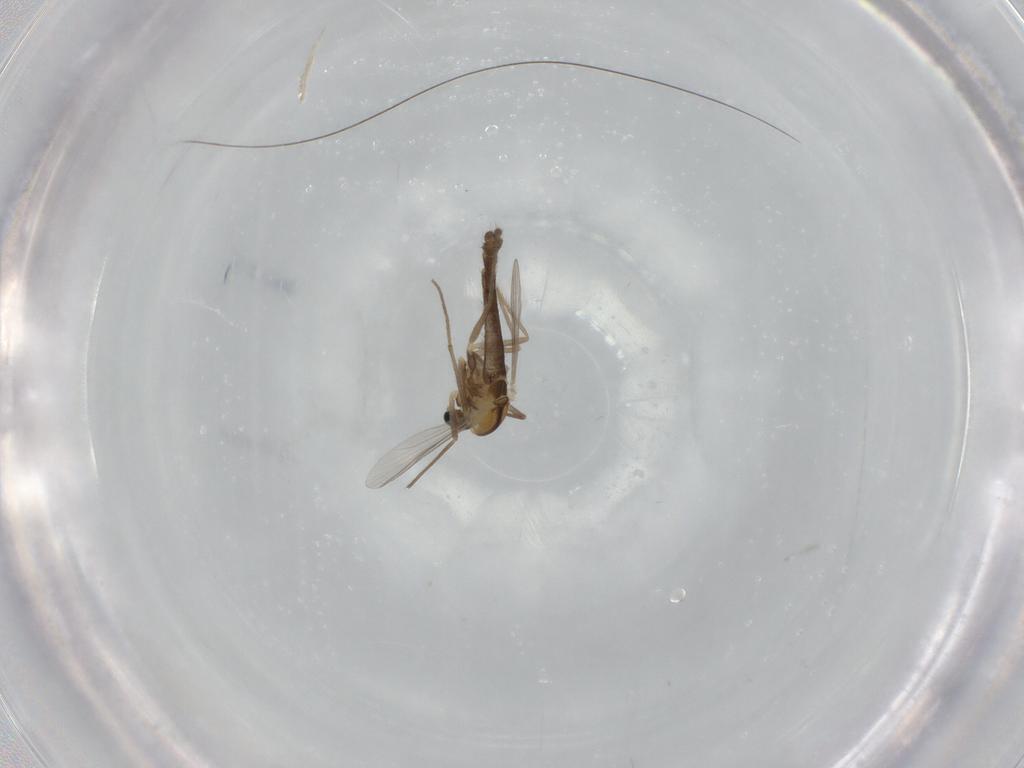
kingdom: Animalia
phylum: Arthropoda
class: Insecta
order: Diptera
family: Chironomidae
